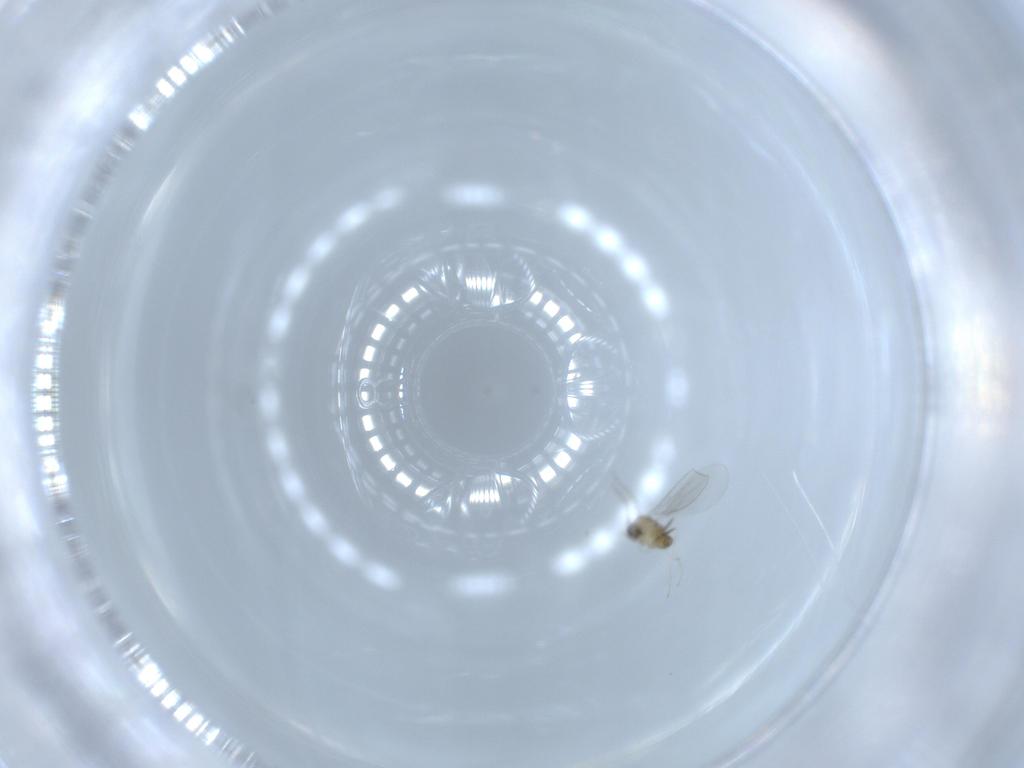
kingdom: Animalia
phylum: Arthropoda
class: Insecta
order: Diptera
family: Cecidomyiidae
